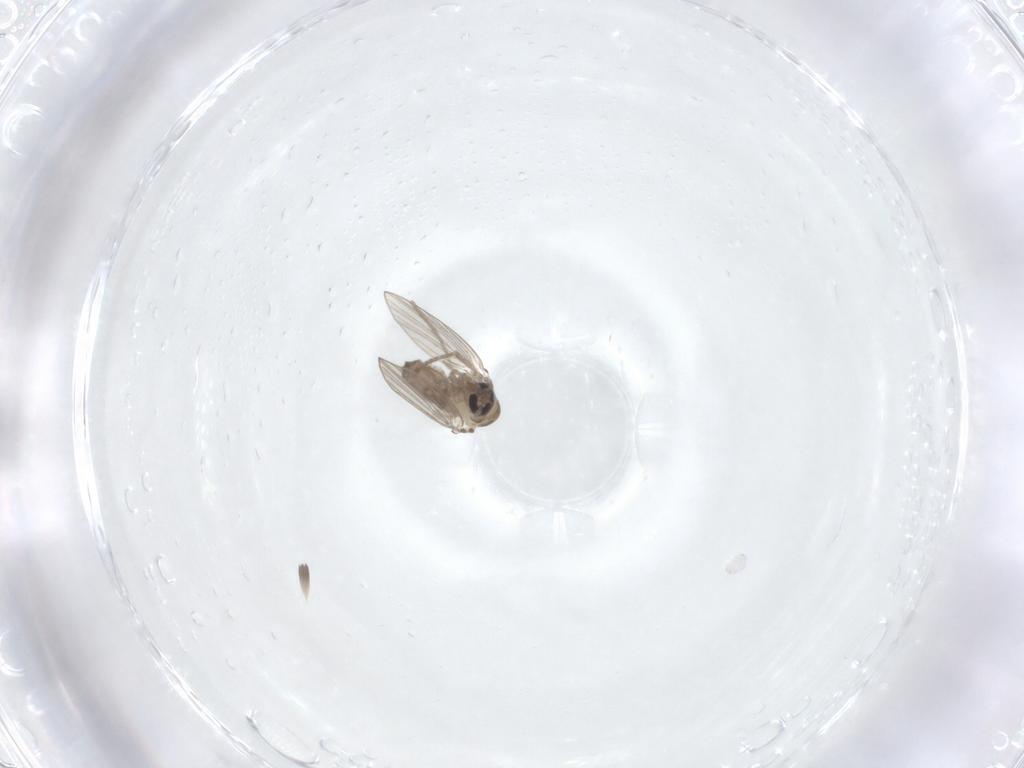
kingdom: Animalia
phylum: Arthropoda
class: Insecta
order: Diptera
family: Psychodidae
